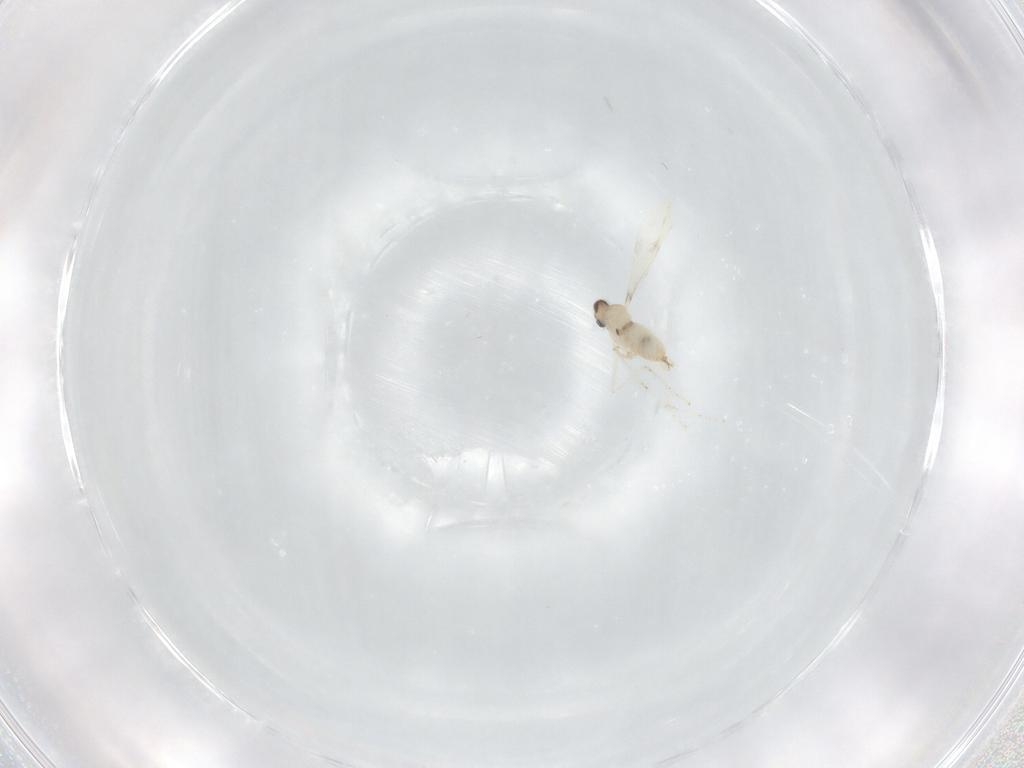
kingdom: Animalia
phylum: Arthropoda
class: Insecta
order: Diptera
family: Cecidomyiidae
